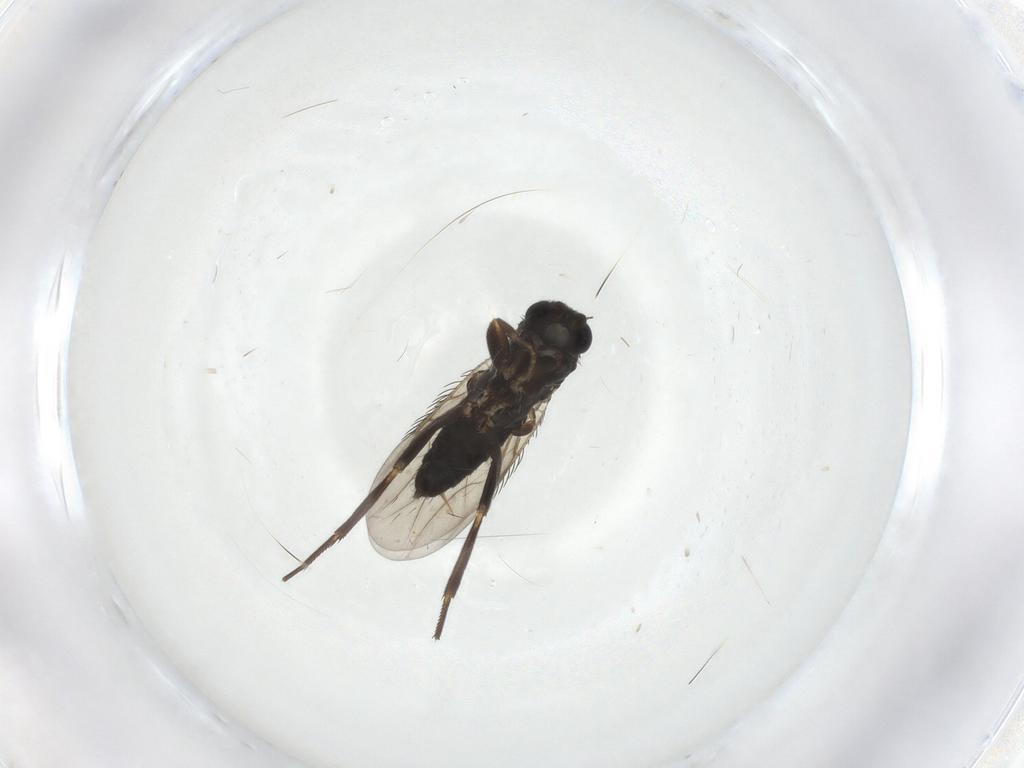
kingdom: Animalia
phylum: Arthropoda
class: Insecta
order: Diptera
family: Phoridae
